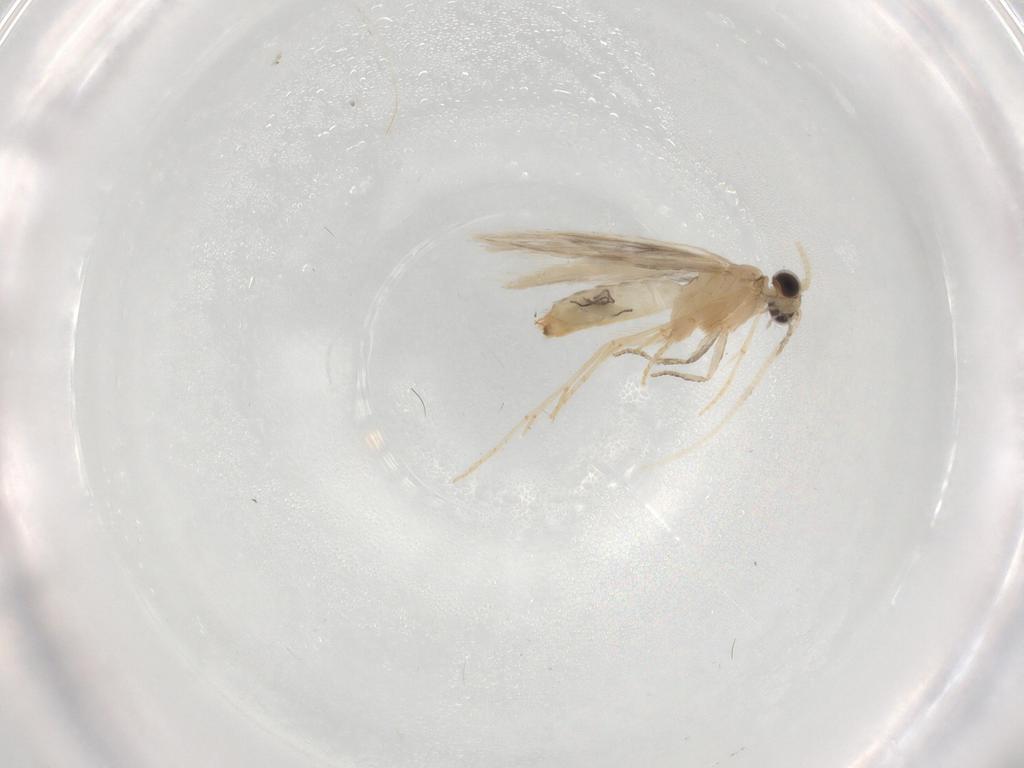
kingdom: Animalia
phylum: Arthropoda
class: Insecta
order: Trichoptera
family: Hydroptilidae
